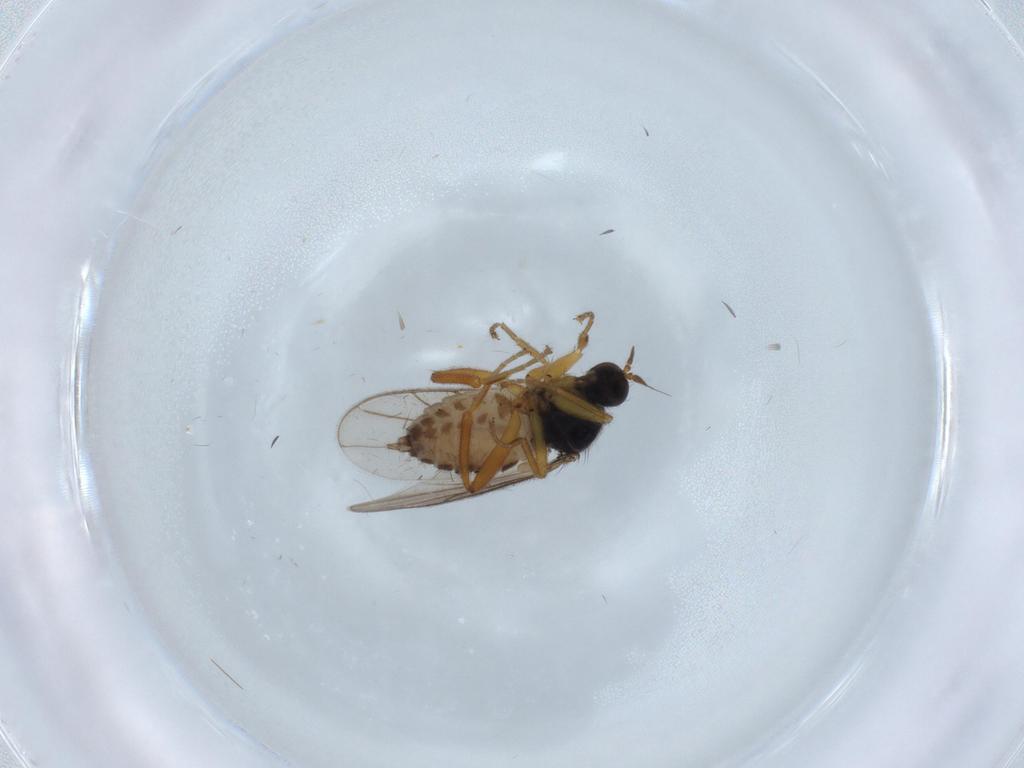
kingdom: Animalia
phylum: Arthropoda
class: Insecta
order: Diptera
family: Hybotidae
